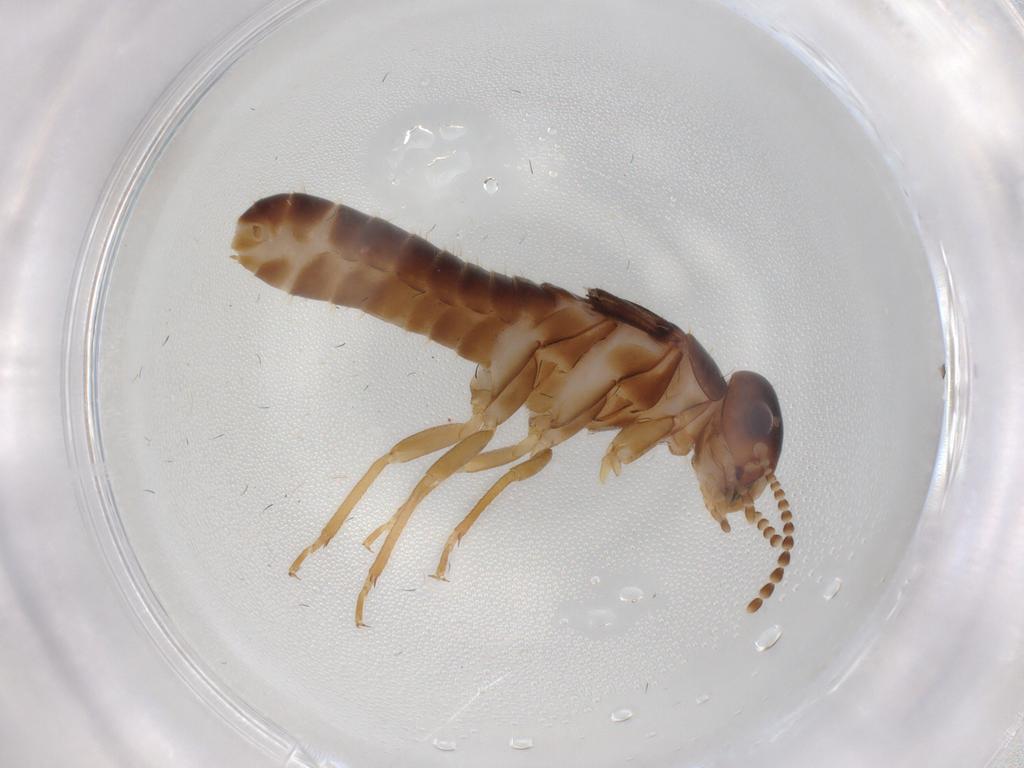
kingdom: Animalia
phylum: Arthropoda
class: Insecta
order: Blattodea
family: Kalotermitidae
